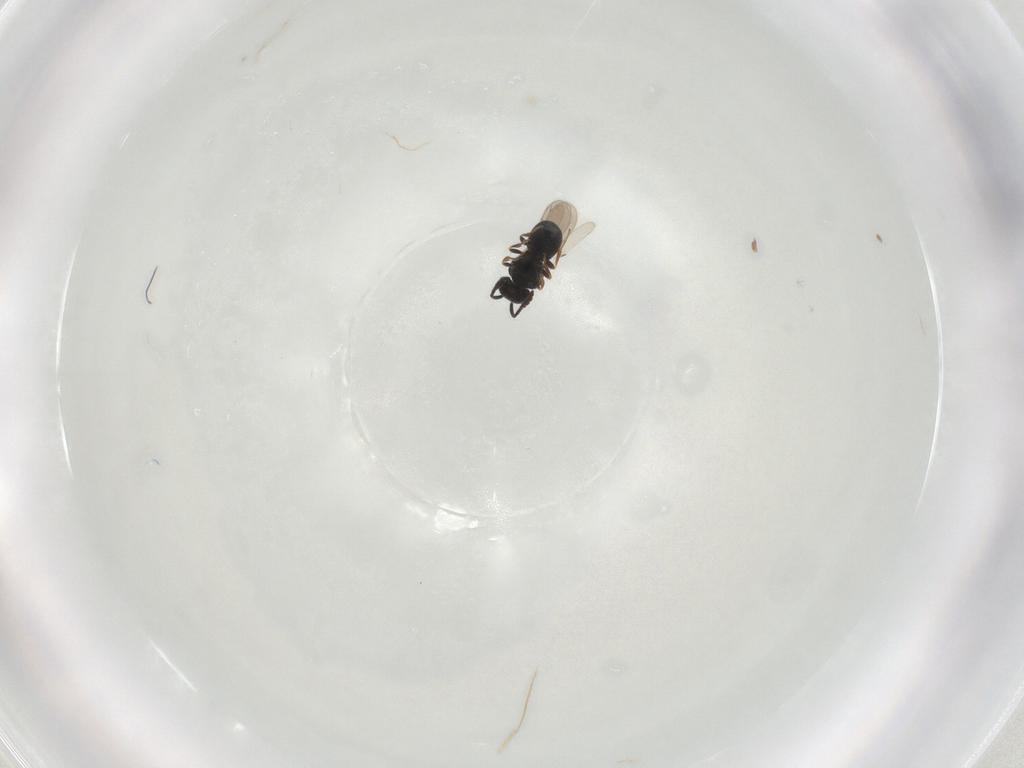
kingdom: Animalia
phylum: Arthropoda
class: Insecta
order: Hymenoptera
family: Scelionidae
